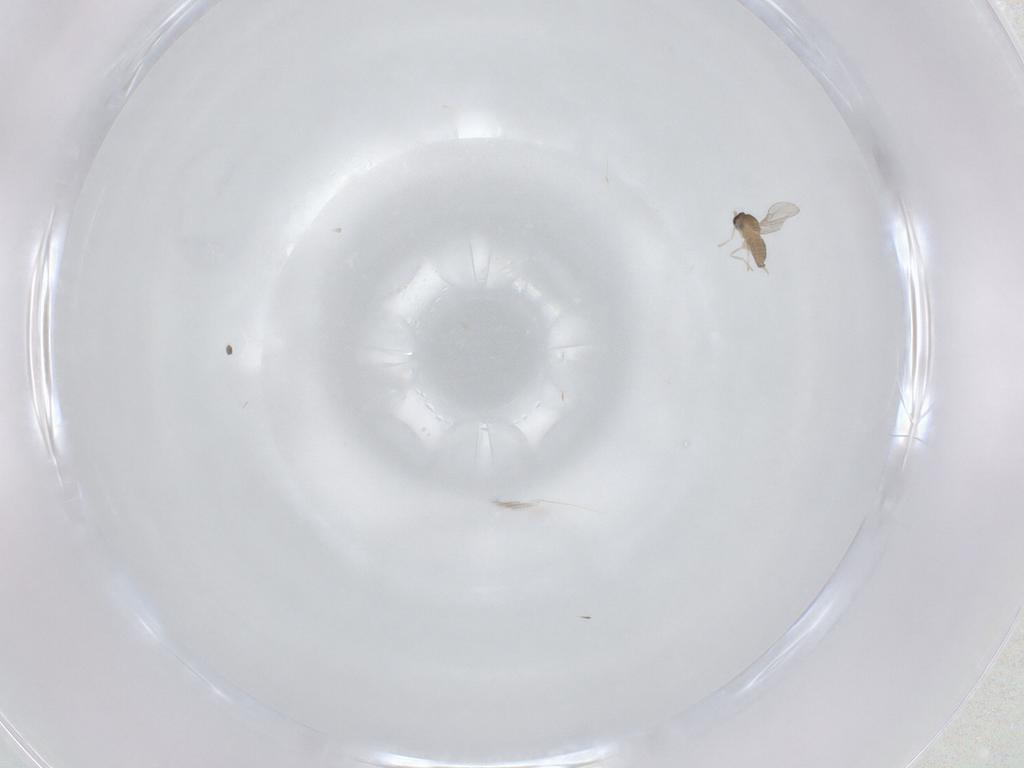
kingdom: Animalia
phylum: Arthropoda
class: Insecta
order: Diptera
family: Cecidomyiidae
